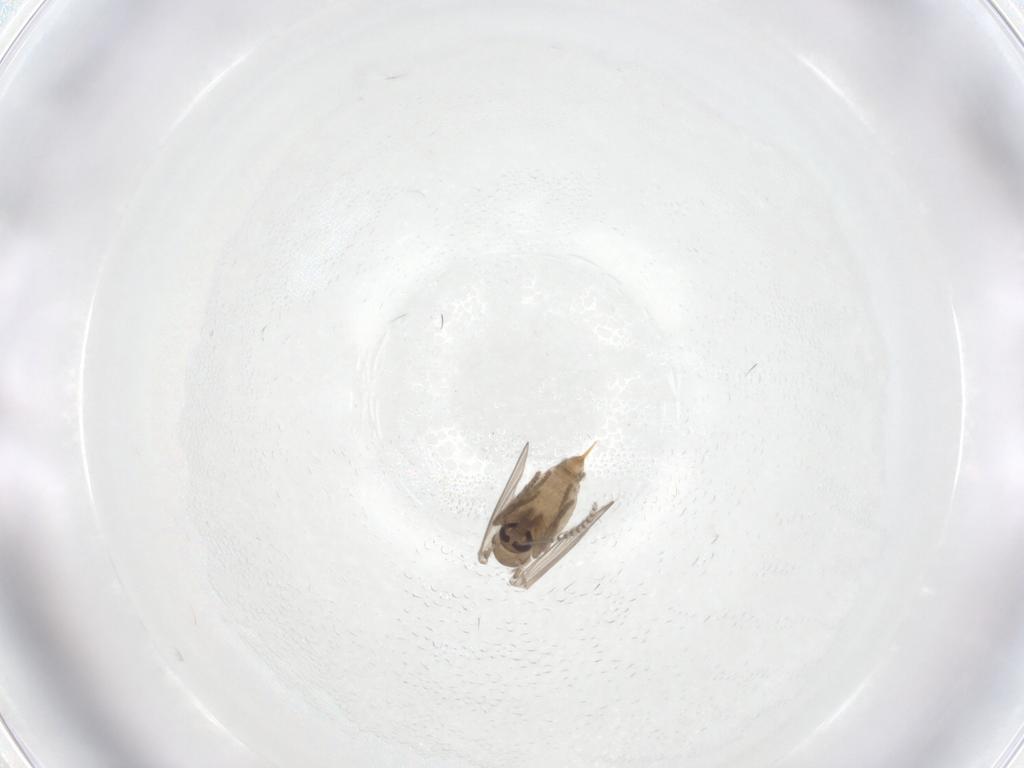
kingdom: Animalia
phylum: Arthropoda
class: Insecta
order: Diptera
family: Psychodidae
